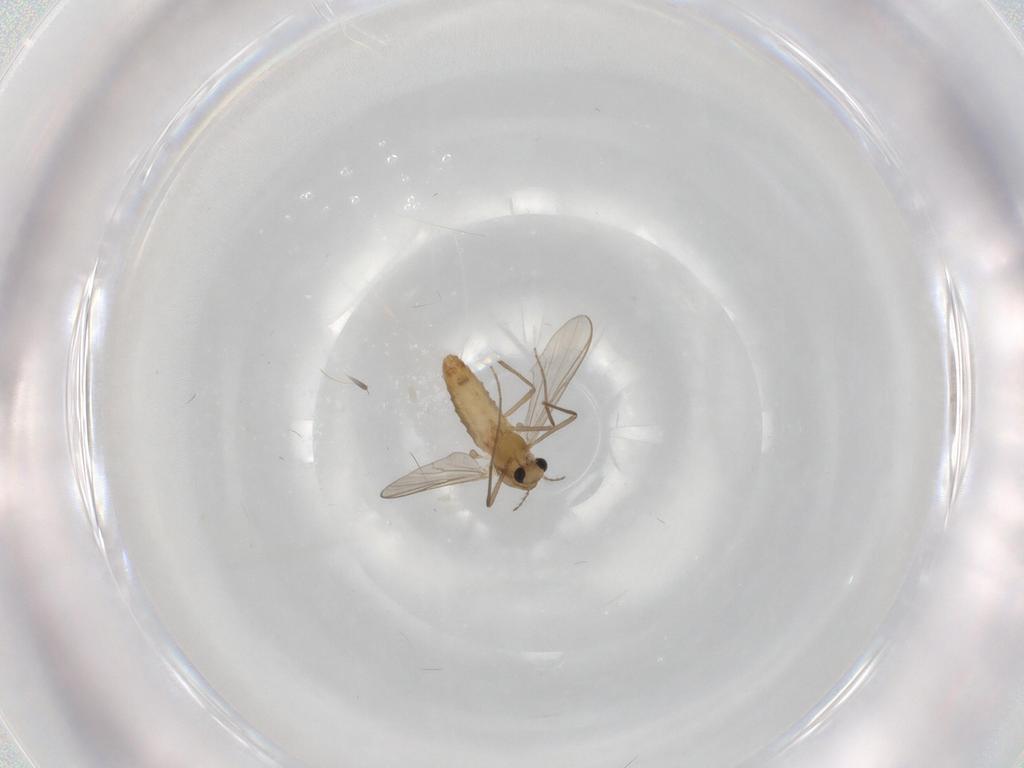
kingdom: Animalia
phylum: Arthropoda
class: Insecta
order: Diptera
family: Chironomidae
